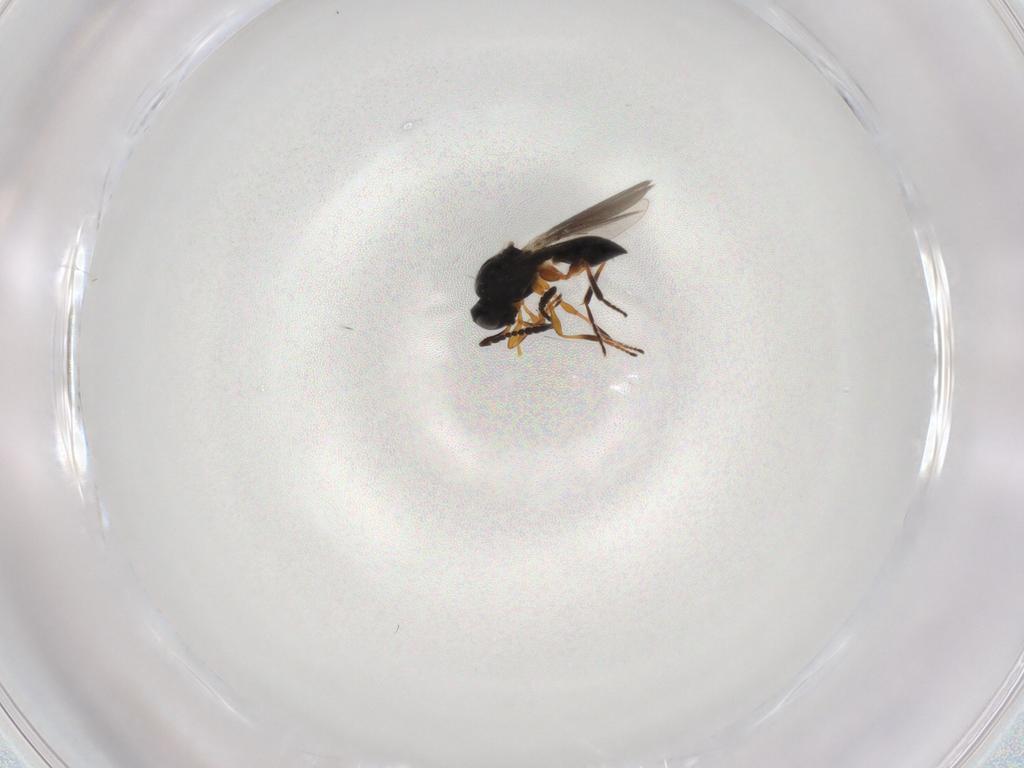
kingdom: Animalia
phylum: Arthropoda
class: Insecta
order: Hymenoptera
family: Platygastridae
